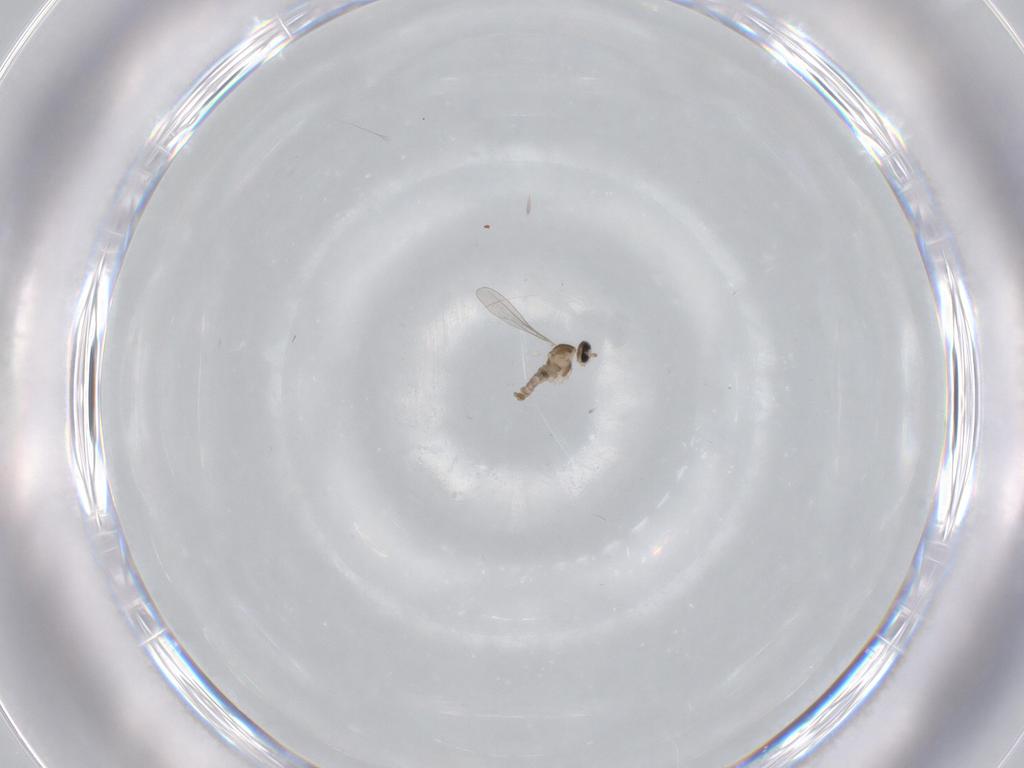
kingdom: Animalia
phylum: Arthropoda
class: Insecta
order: Diptera
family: Cecidomyiidae
